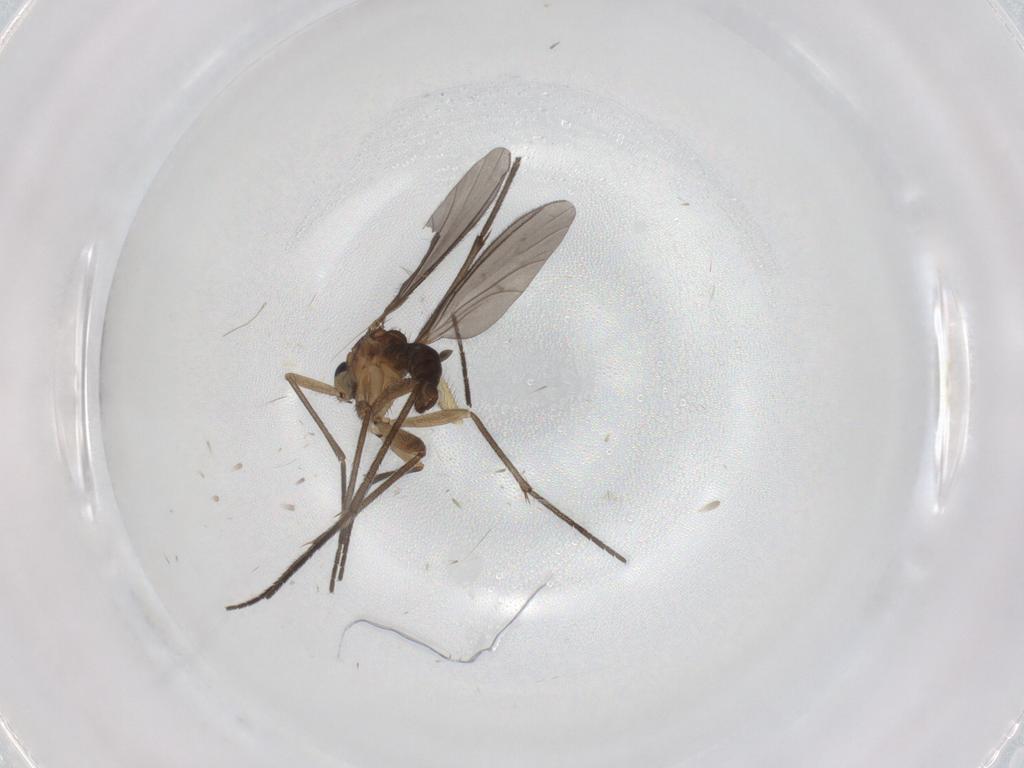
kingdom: Animalia
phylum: Arthropoda
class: Insecta
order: Diptera
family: Sciaridae
